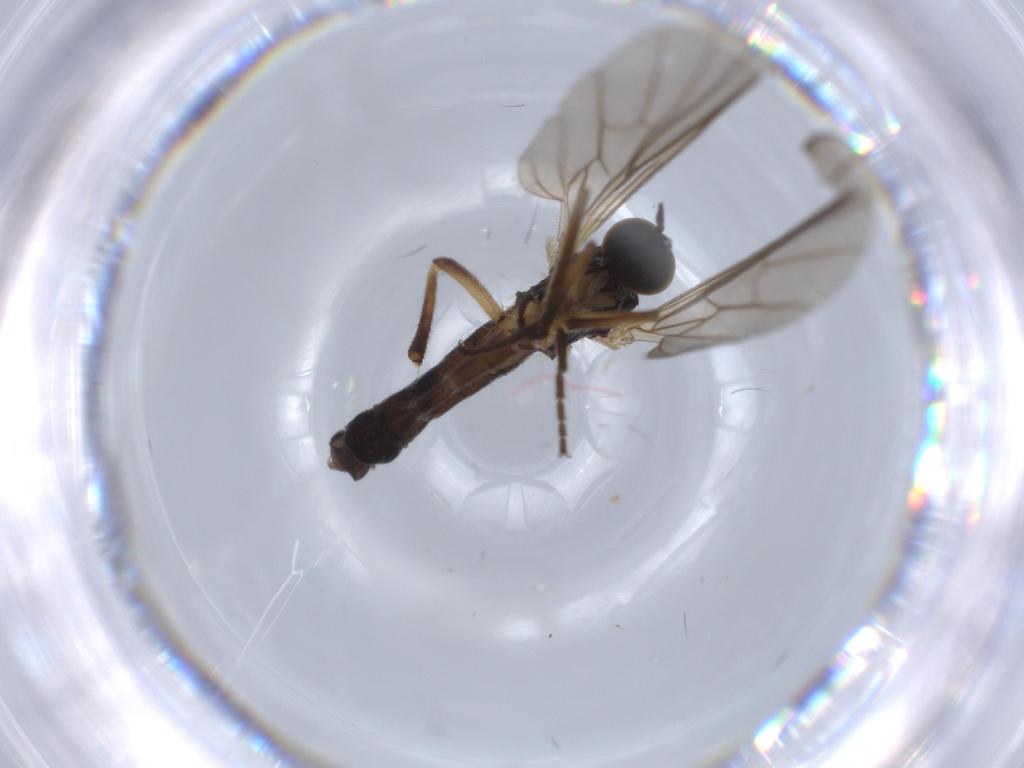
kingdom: Animalia
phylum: Arthropoda
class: Insecta
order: Diptera
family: Empididae
